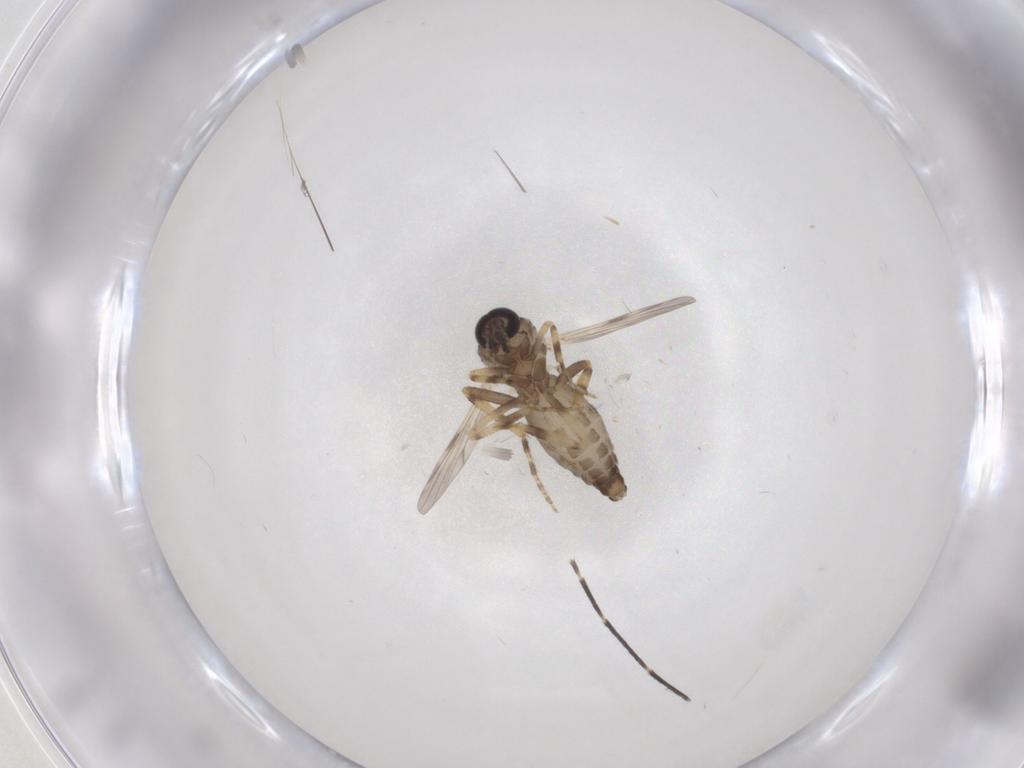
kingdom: Animalia
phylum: Arthropoda
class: Insecta
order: Diptera
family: Ceratopogonidae
